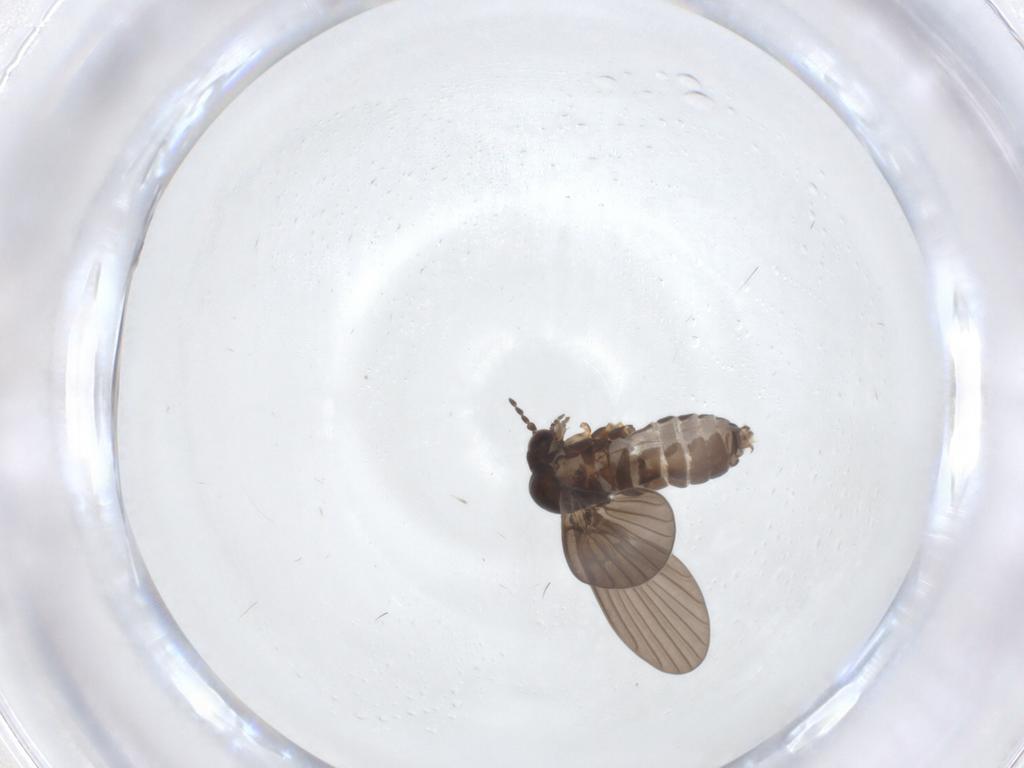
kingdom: Animalia
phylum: Arthropoda
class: Insecta
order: Diptera
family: Psychodidae
